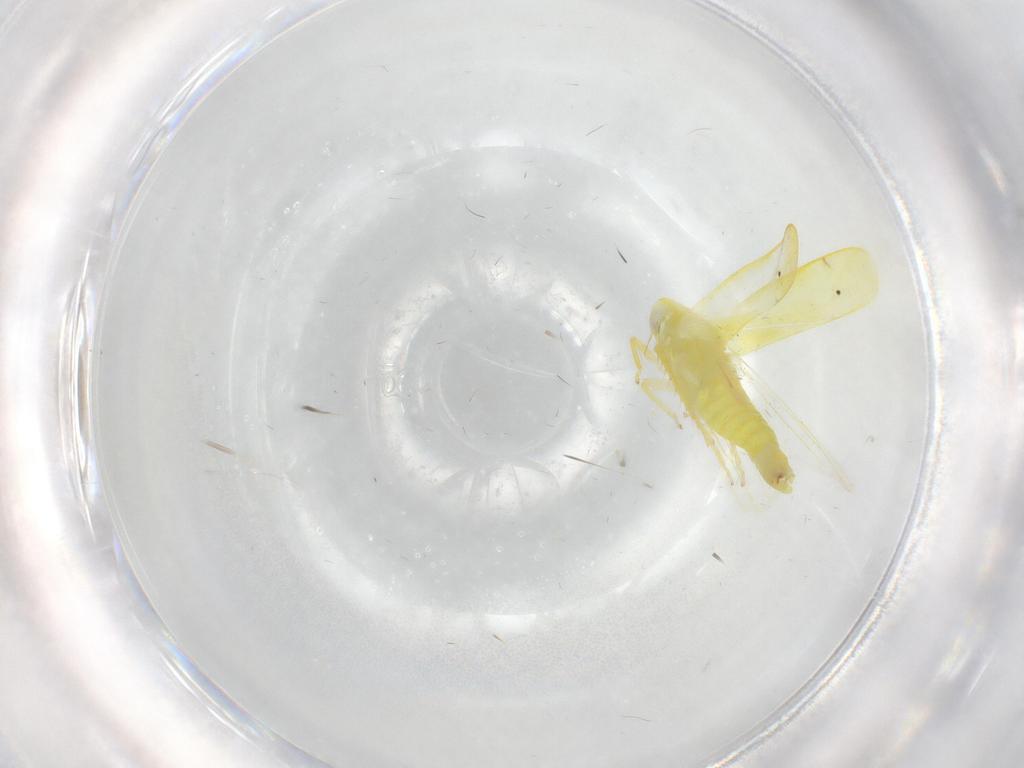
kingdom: Animalia
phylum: Arthropoda
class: Insecta
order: Hemiptera
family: Cicadellidae
